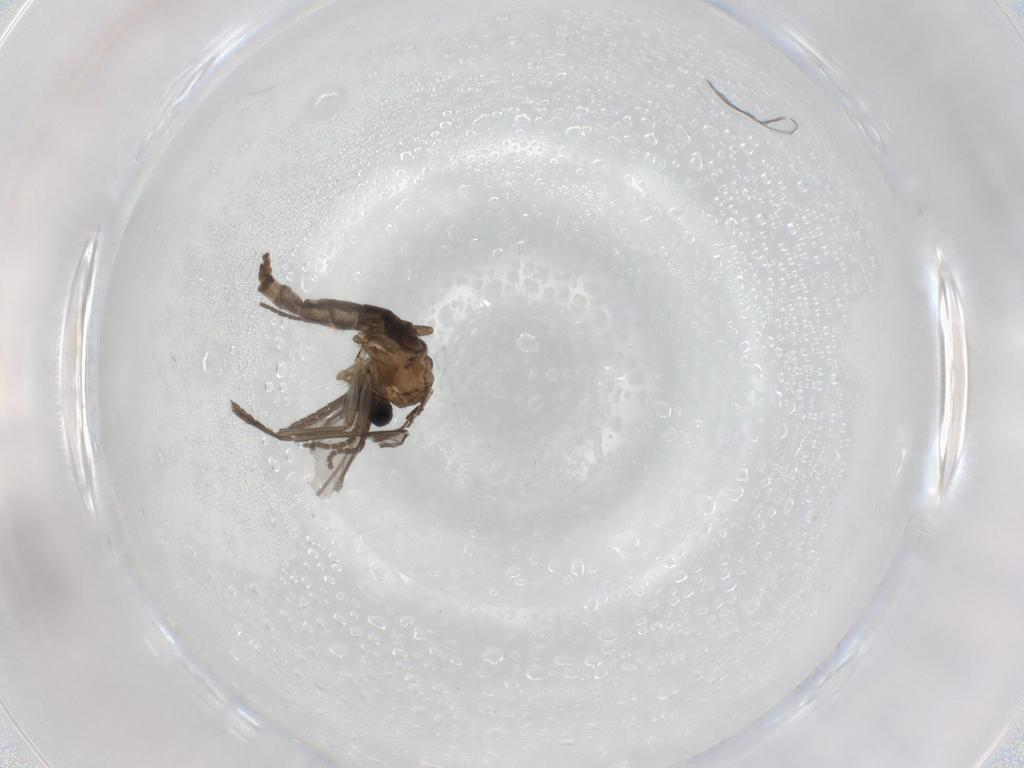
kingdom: Animalia
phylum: Arthropoda
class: Insecta
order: Diptera
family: Sciaridae
